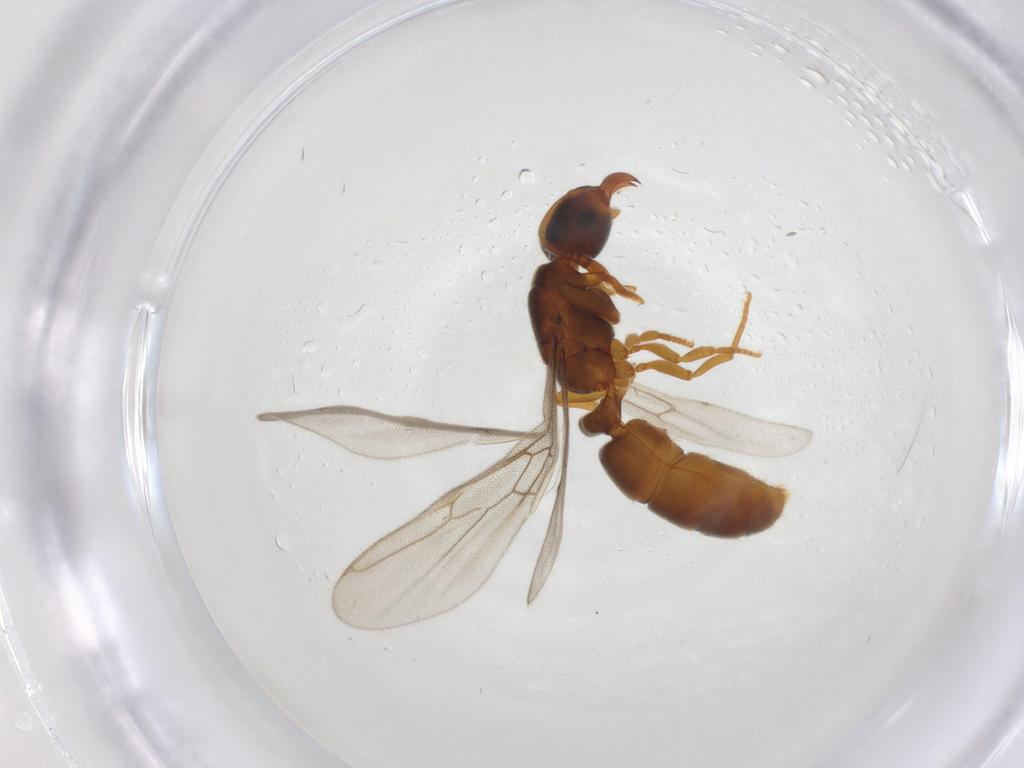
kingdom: Animalia
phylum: Arthropoda
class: Insecta
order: Hymenoptera
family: Formicidae
